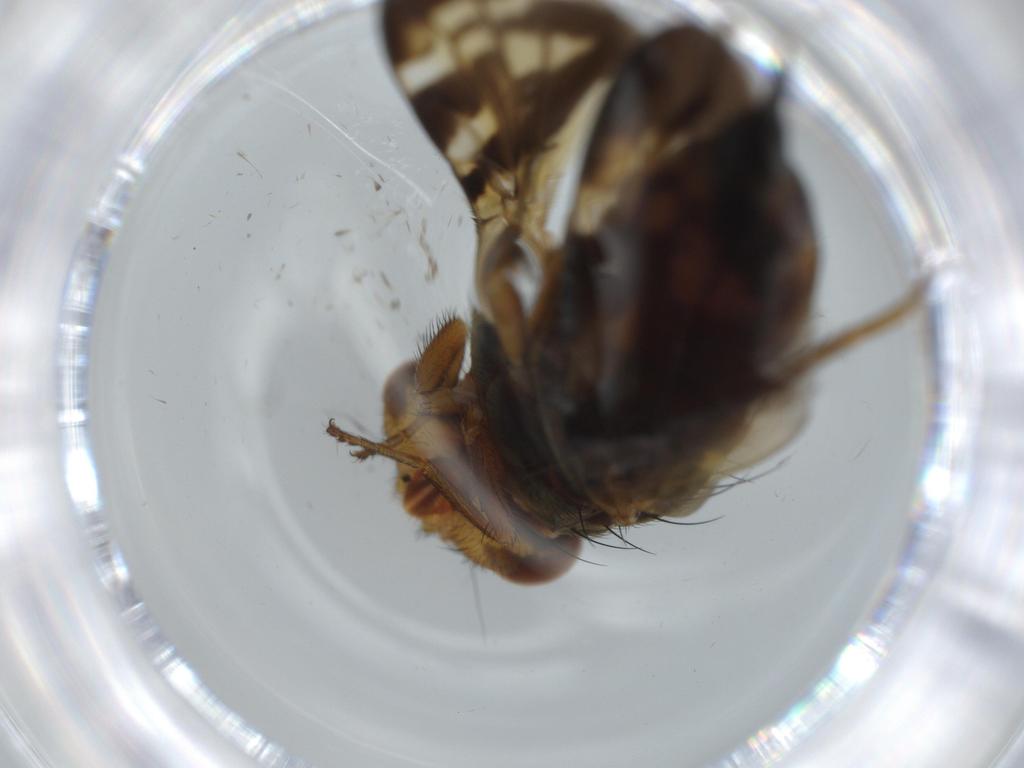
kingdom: Animalia
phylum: Arthropoda
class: Insecta
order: Diptera
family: Ulidiidae
